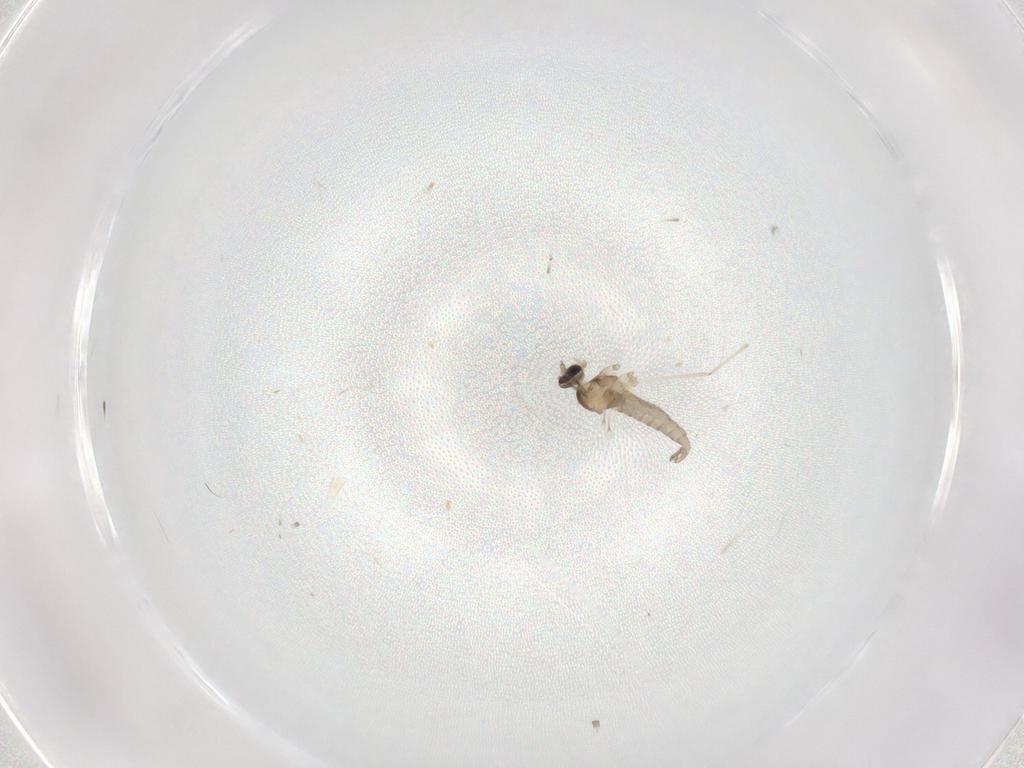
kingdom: Animalia
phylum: Arthropoda
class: Insecta
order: Diptera
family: Cecidomyiidae
